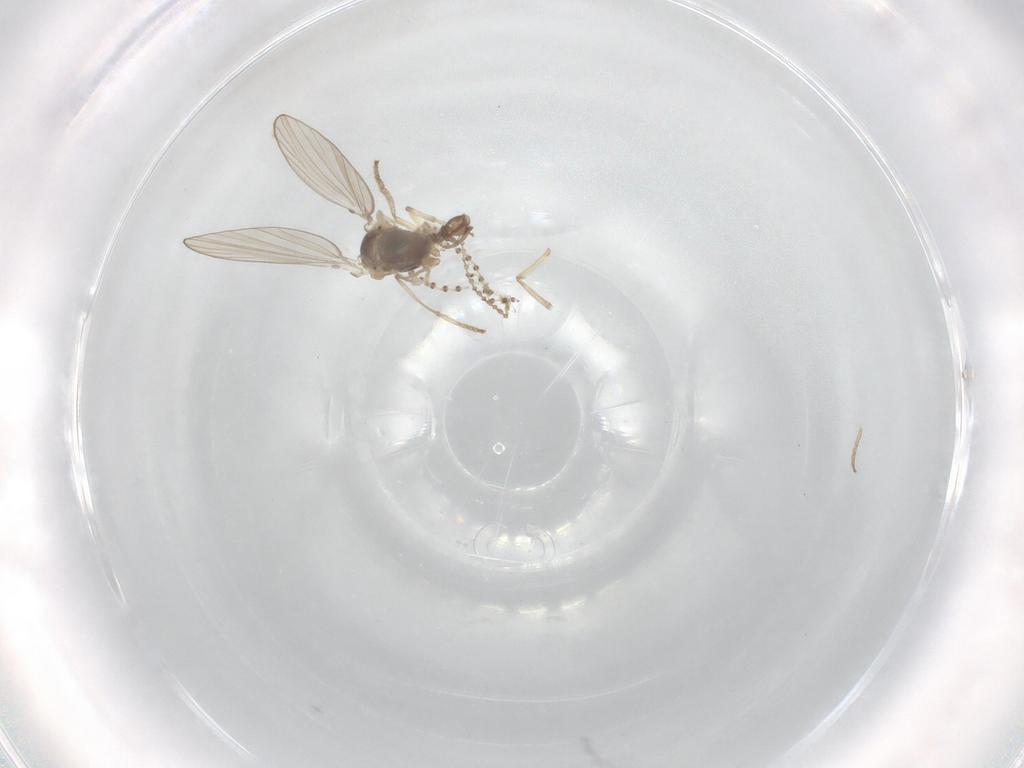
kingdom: Animalia
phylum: Arthropoda
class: Insecta
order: Diptera
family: Psychodidae
